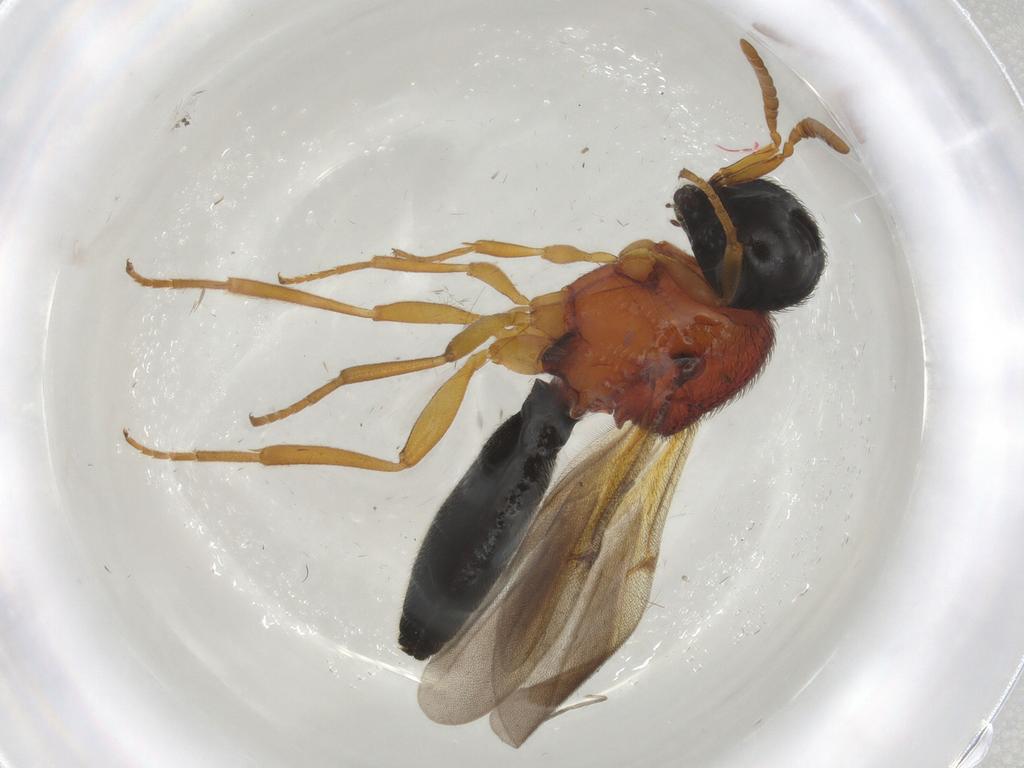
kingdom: Animalia
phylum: Arthropoda
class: Insecta
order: Hymenoptera
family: Scelionidae
